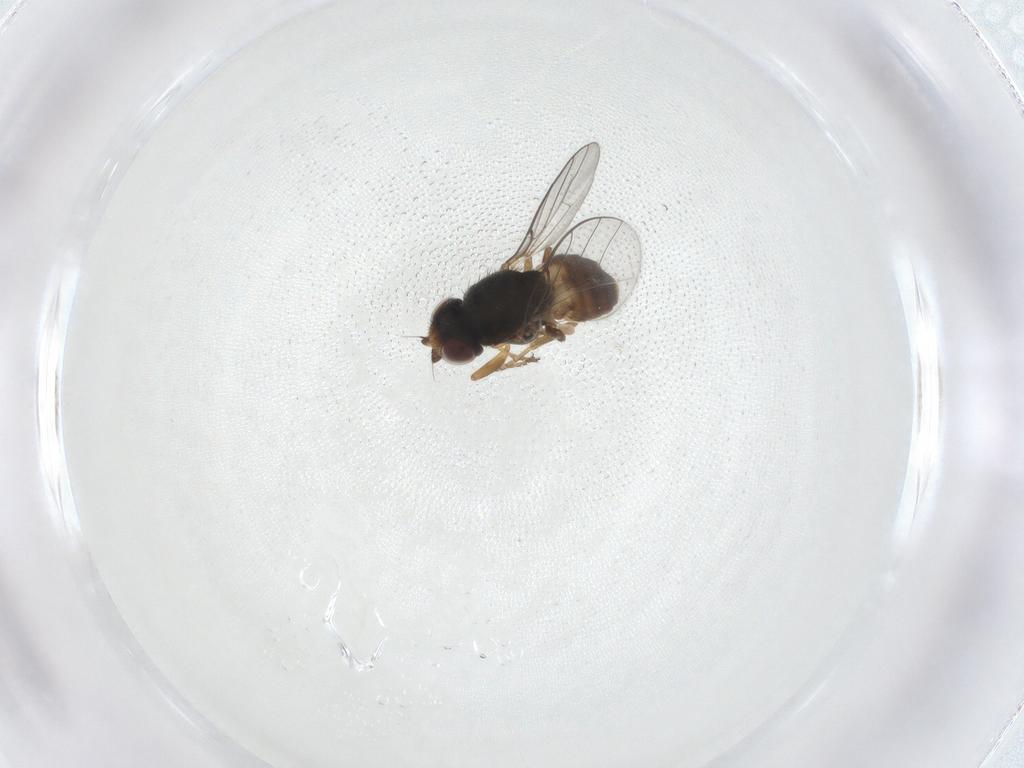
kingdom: Animalia
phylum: Arthropoda
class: Insecta
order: Diptera
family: Chloropidae
